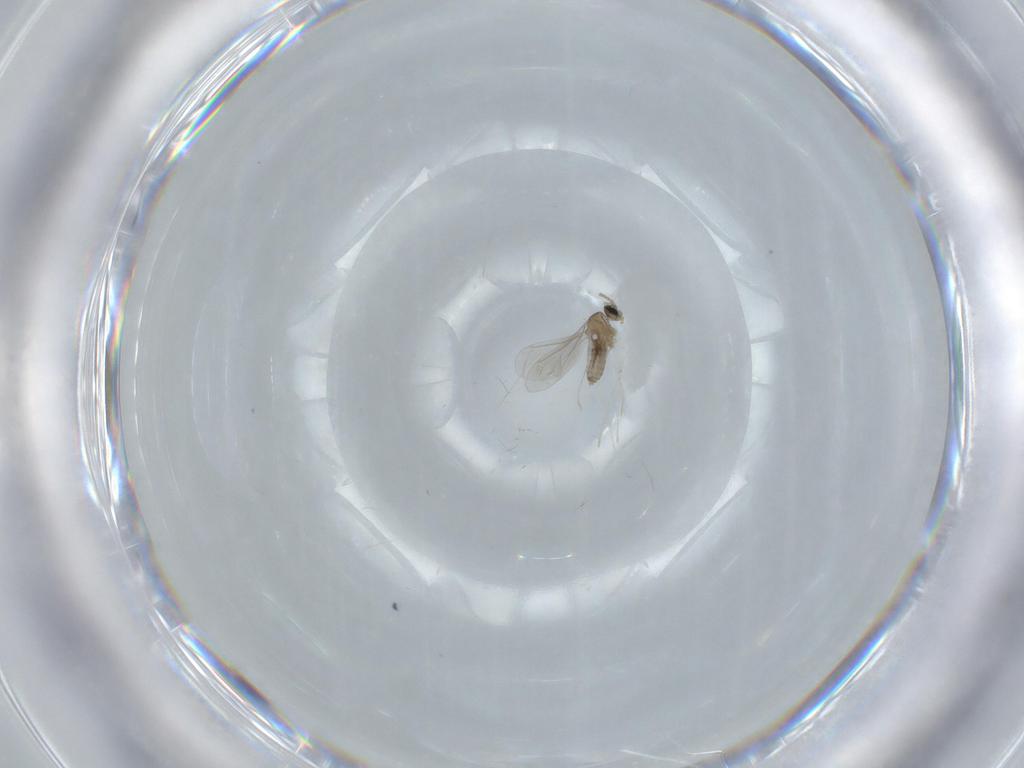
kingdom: Animalia
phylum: Arthropoda
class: Insecta
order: Diptera
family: Cecidomyiidae
